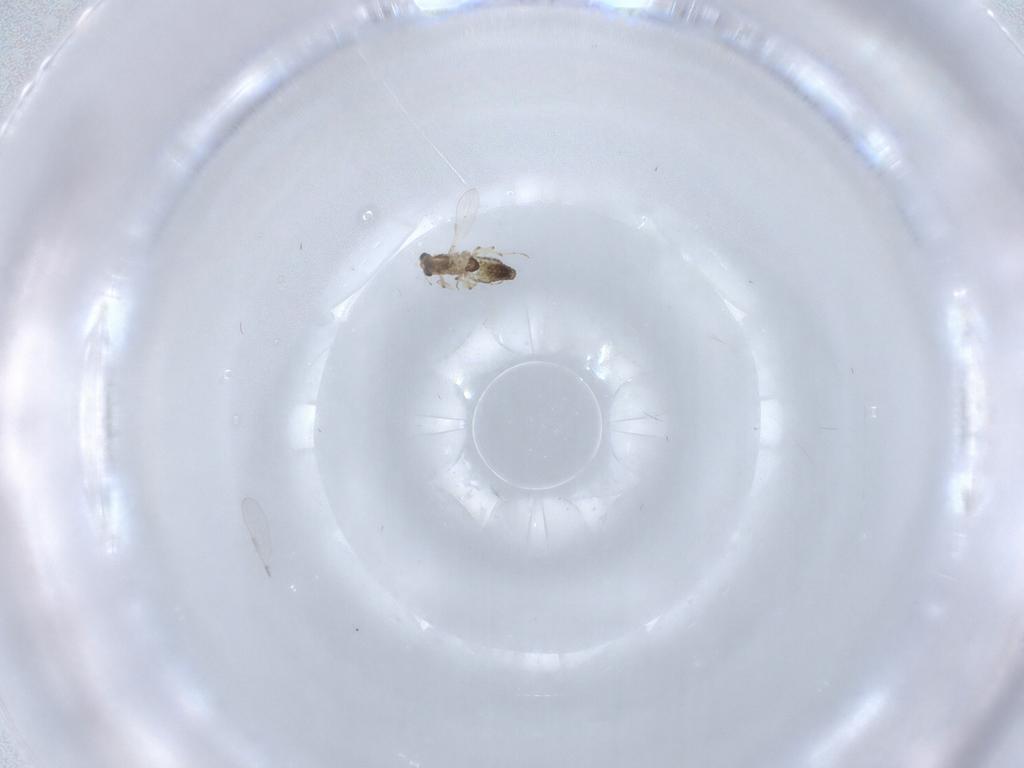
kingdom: Animalia
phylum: Arthropoda
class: Insecta
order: Diptera
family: Chironomidae
